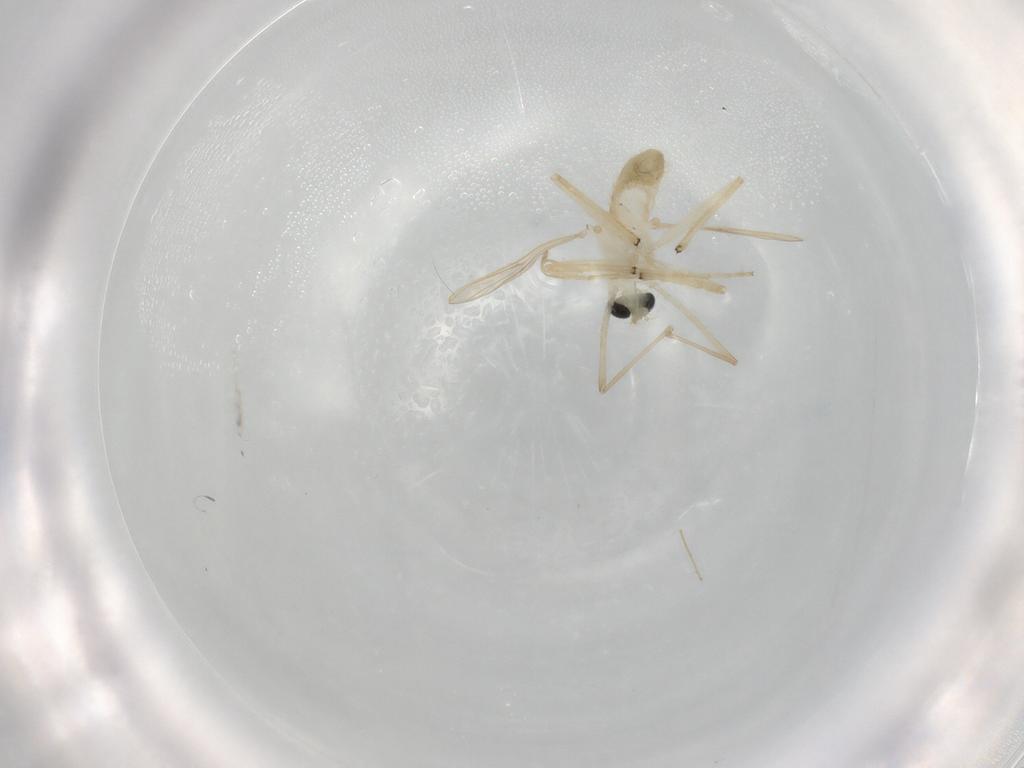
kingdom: Animalia
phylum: Arthropoda
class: Insecta
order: Diptera
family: Chironomidae
